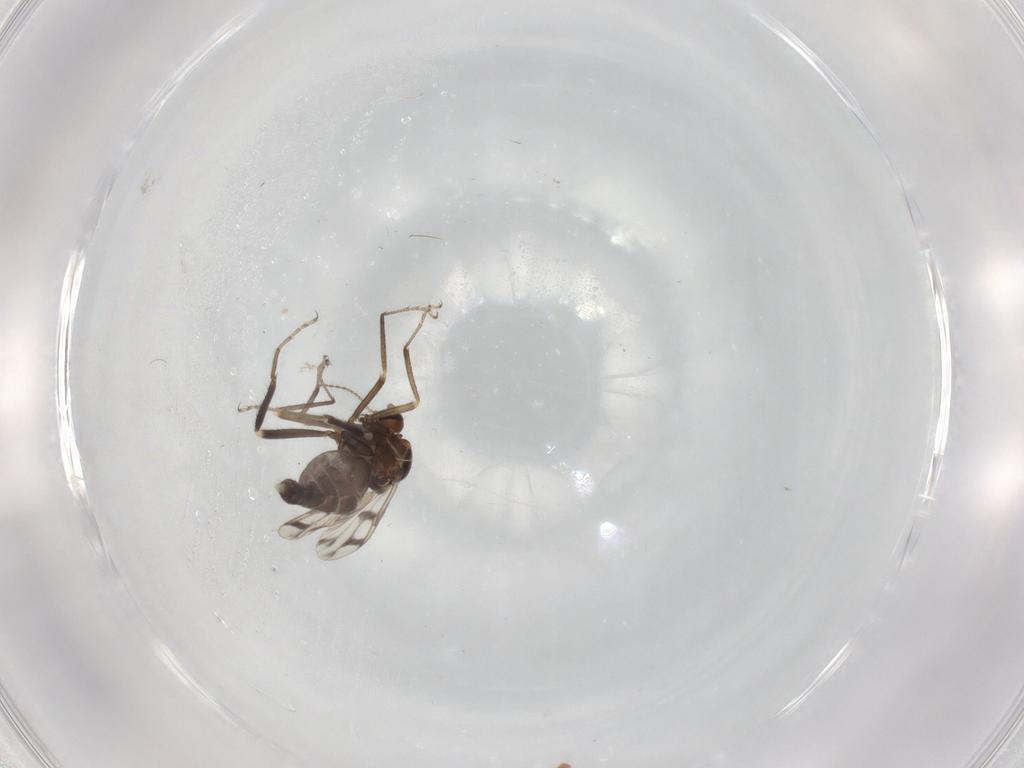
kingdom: Animalia
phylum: Arthropoda
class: Insecta
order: Diptera
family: Ceratopogonidae
